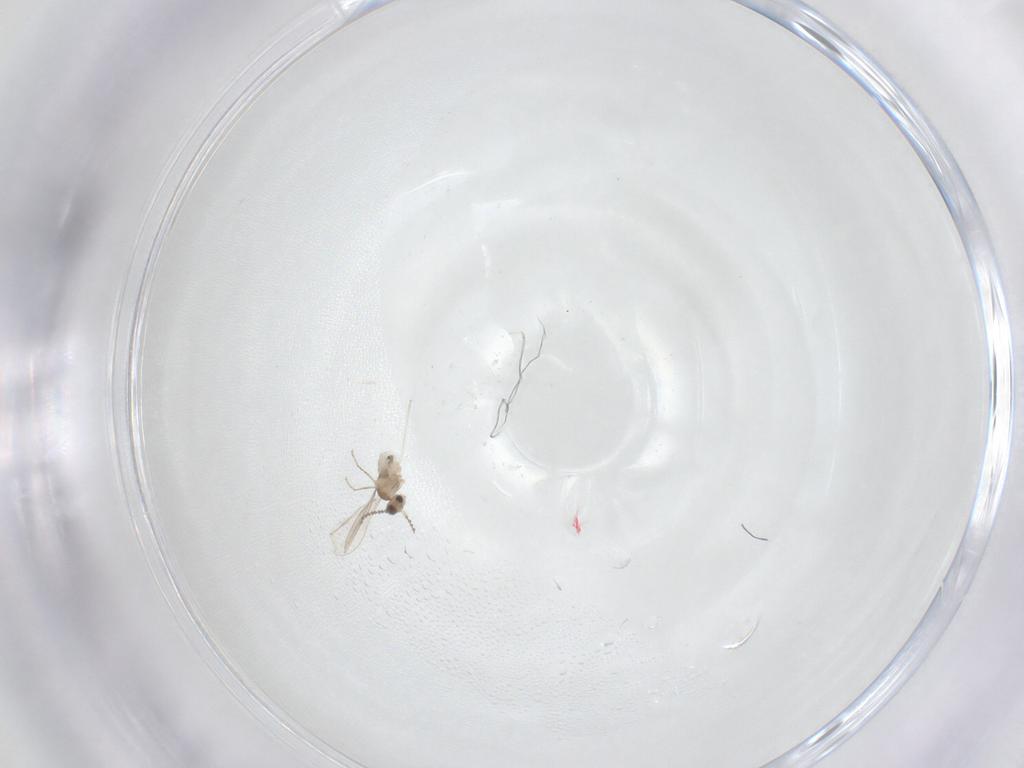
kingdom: Animalia
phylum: Arthropoda
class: Insecta
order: Diptera
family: Cecidomyiidae
